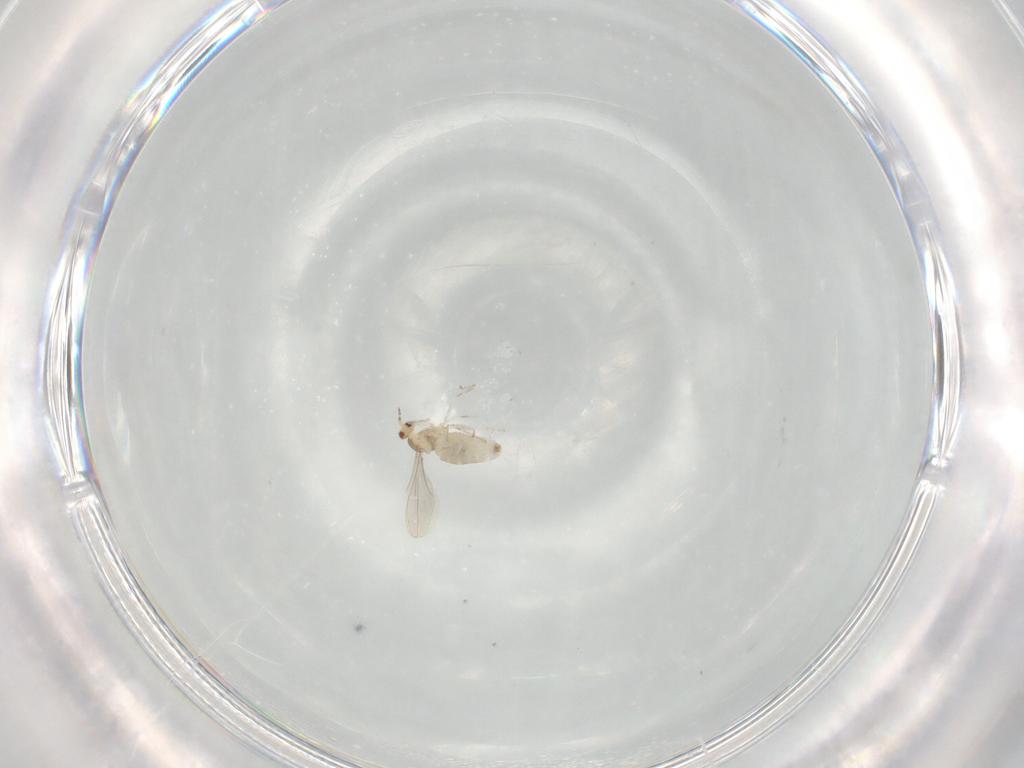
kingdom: Animalia
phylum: Arthropoda
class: Insecta
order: Diptera
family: Cecidomyiidae
